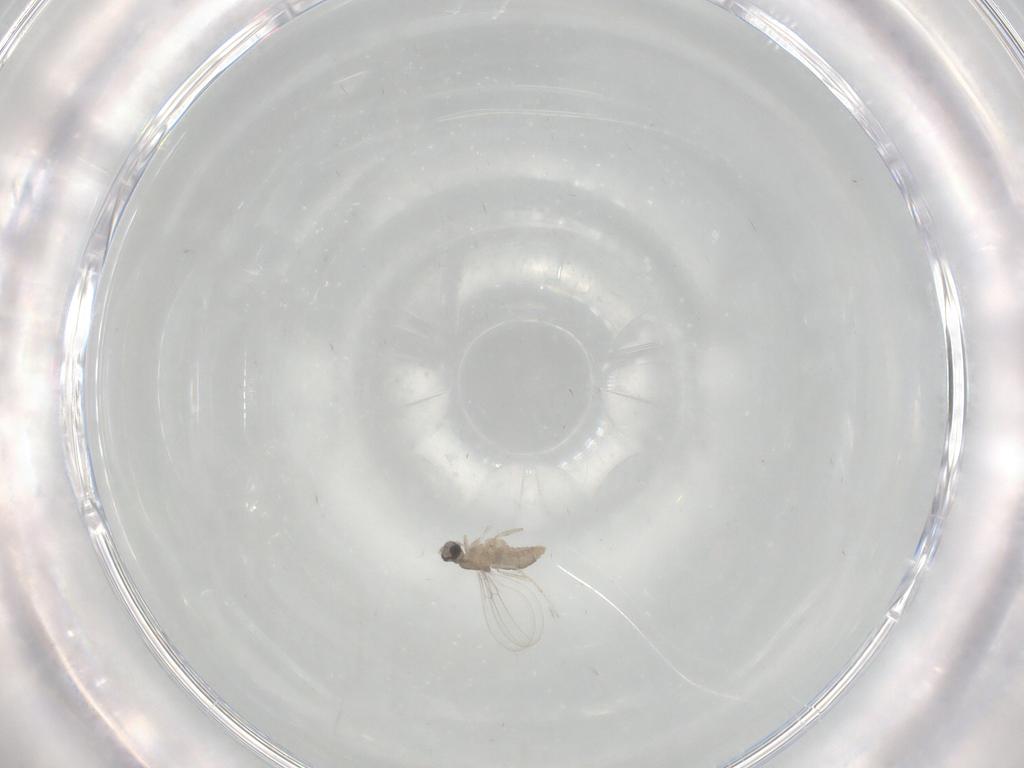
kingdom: Animalia
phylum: Arthropoda
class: Insecta
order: Diptera
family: Cecidomyiidae
